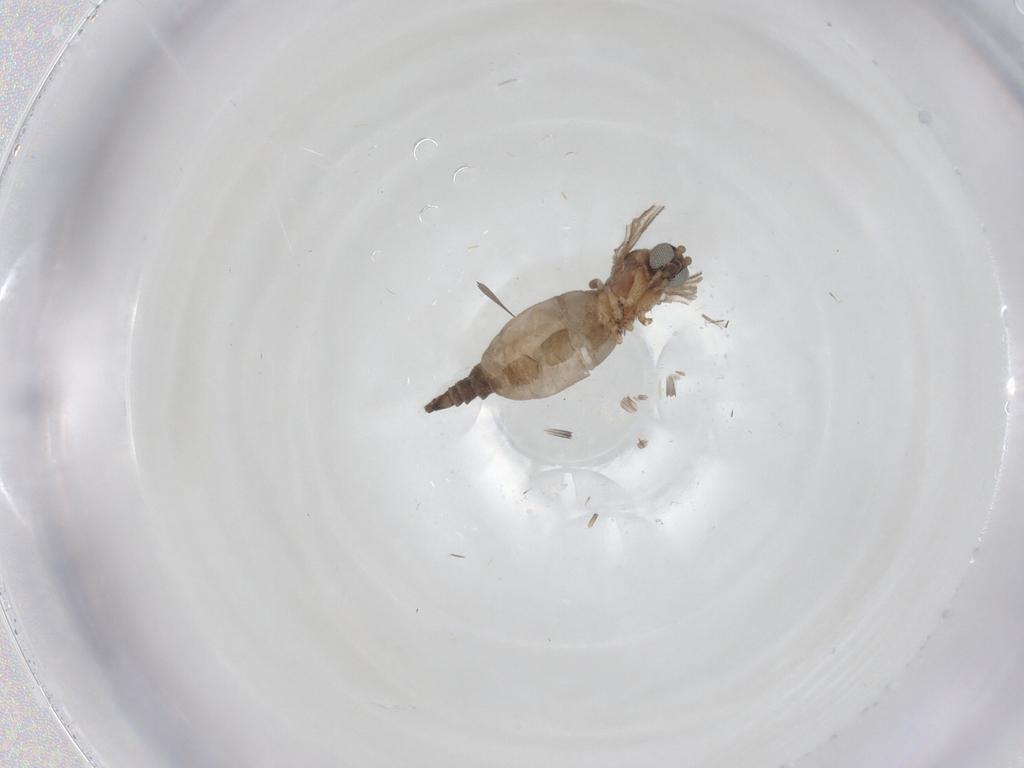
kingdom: Animalia
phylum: Arthropoda
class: Insecta
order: Diptera
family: Sciaridae
